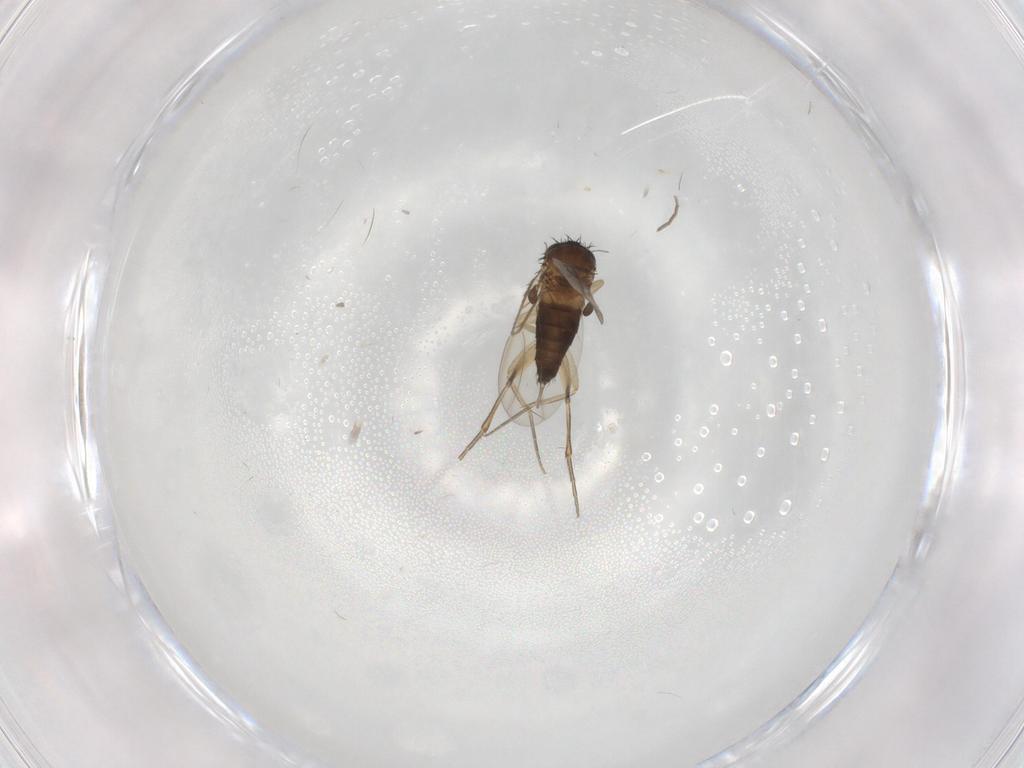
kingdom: Animalia
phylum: Arthropoda
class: Insecta
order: Diptera
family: Phoridae
